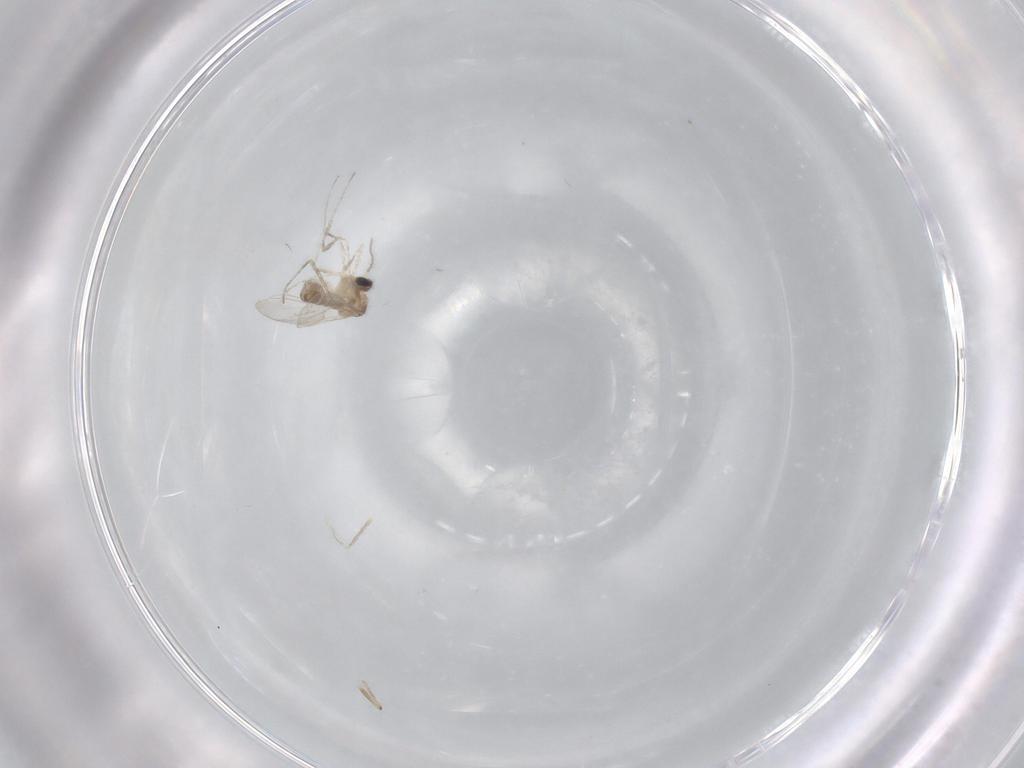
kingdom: Animalia
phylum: Arthropoda
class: Insecta
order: Diptera
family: Cecidomyiidae
